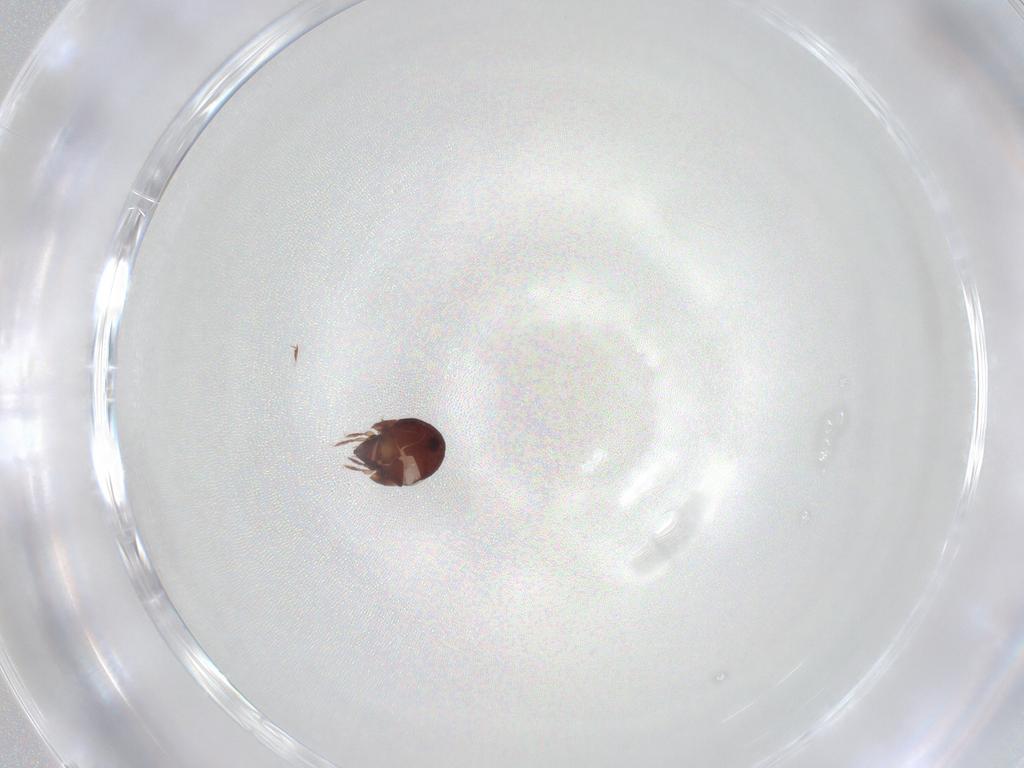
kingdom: Animalia
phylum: Arthropoda
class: Arachnida
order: Sarcoptiformes
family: Humerobatidae
